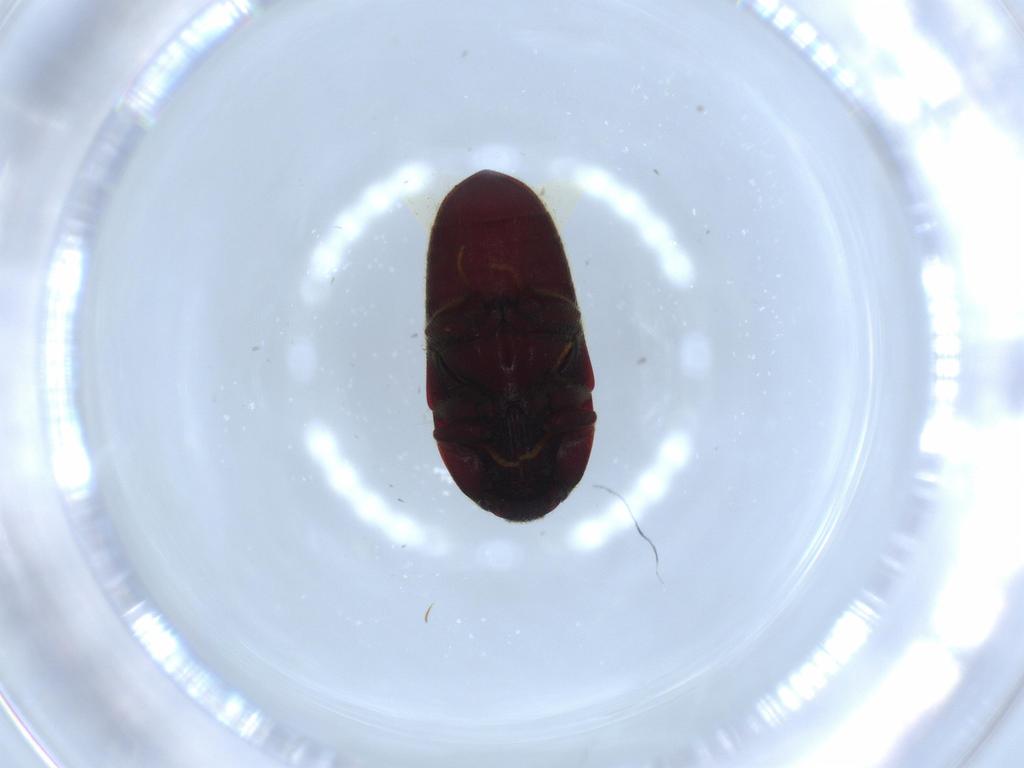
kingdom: Animalia
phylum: Arthropoda
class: Insecta
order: Coleoptera
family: Throscidae
